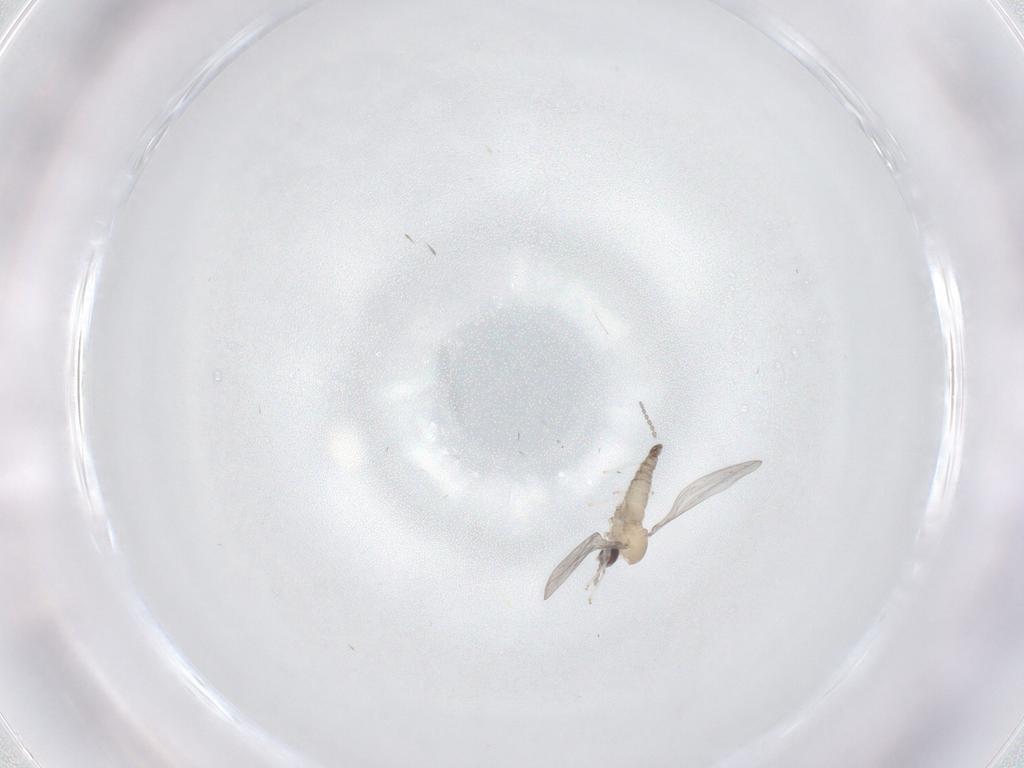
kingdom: Animalia
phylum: Arthropoda
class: Insecta
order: Diptera
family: Cecidomyiidae
